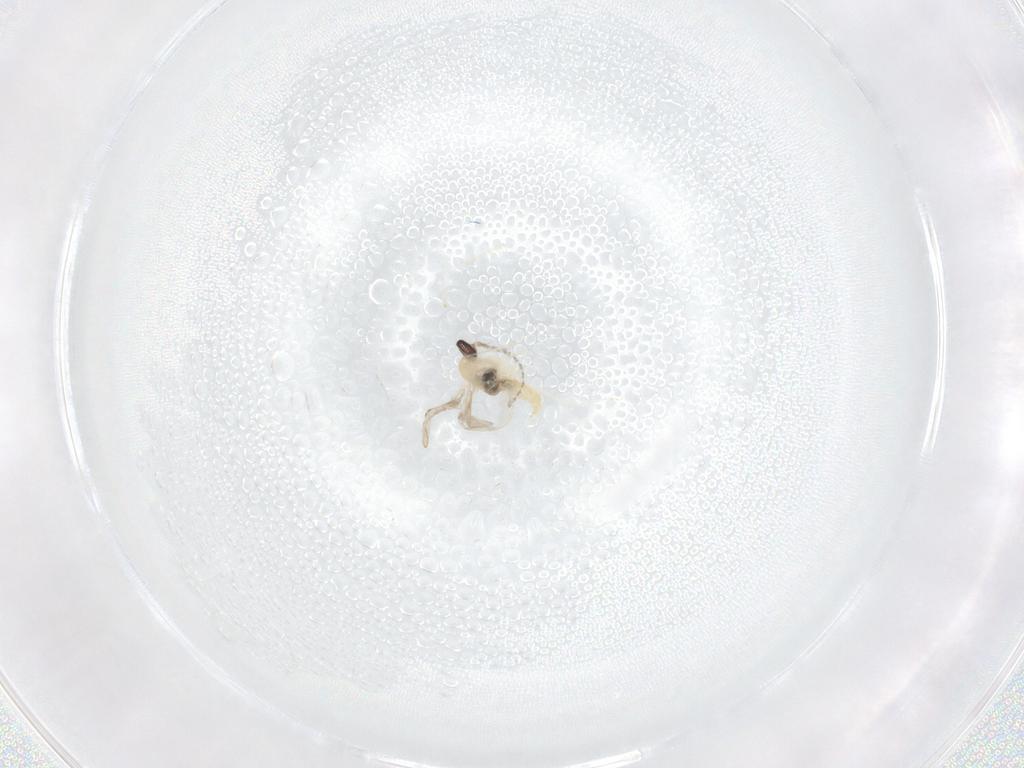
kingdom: Animalia
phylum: Arthropoda
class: Insecta
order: Diptera
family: Cecidomyiidae
